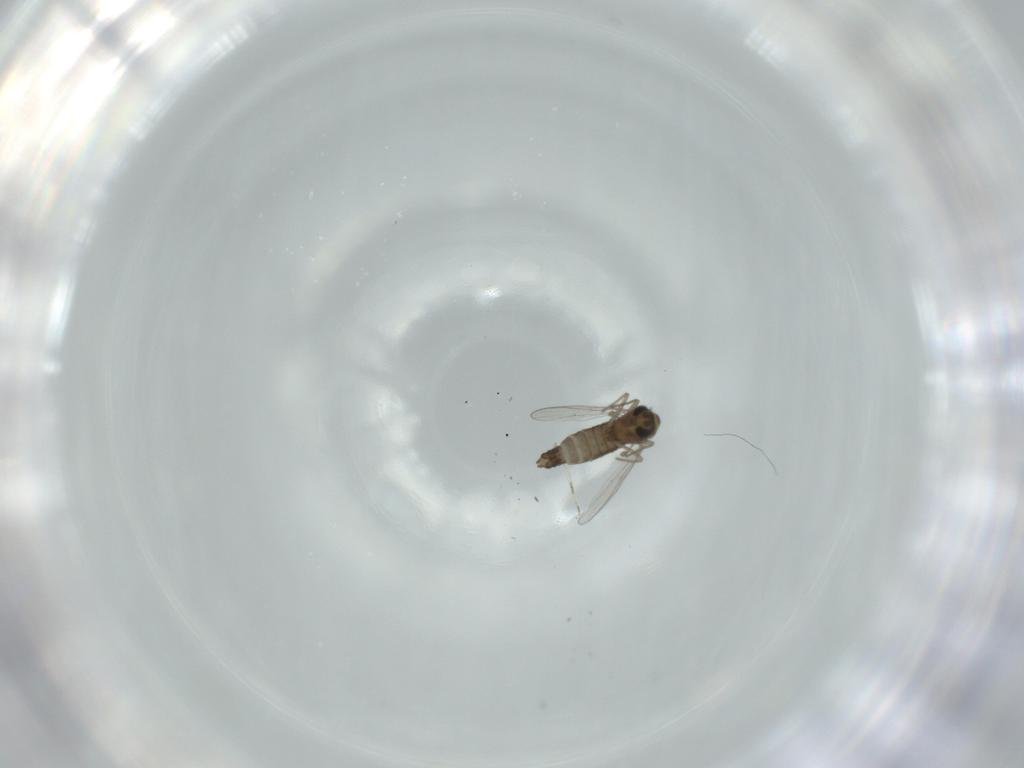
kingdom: Animalia
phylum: Arthropoda
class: Insecta
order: Diptera
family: Chironomidae
